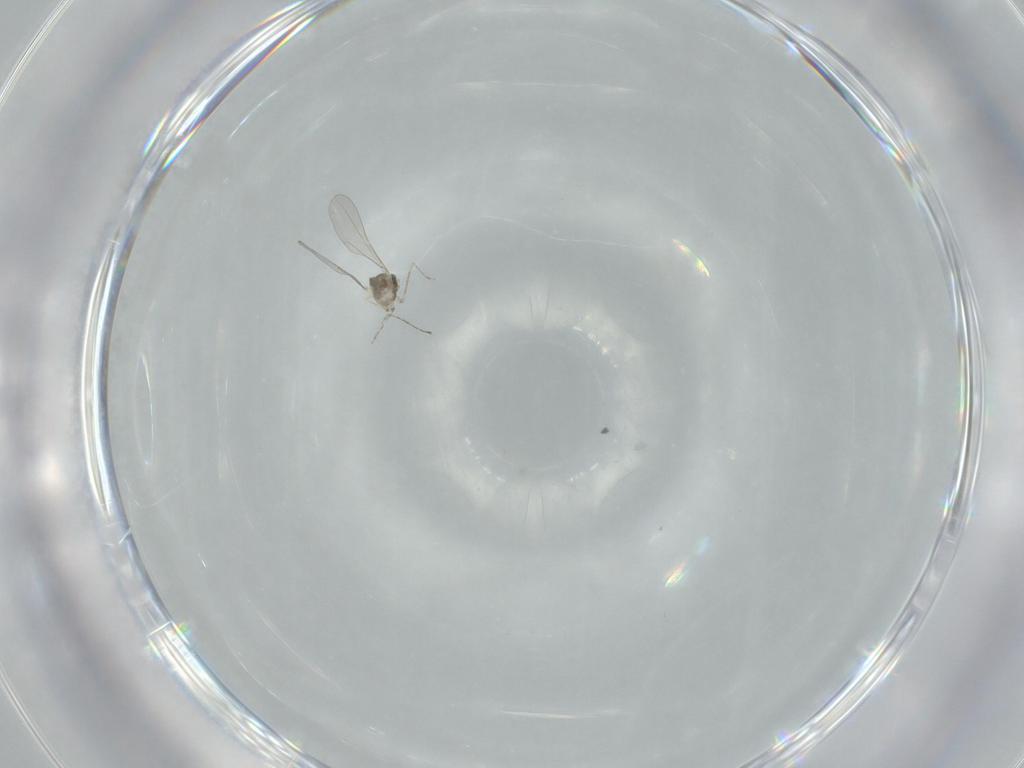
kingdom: Animalia
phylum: Arthropoda
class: Insecta
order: Diptera
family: Cecidomyiidae
